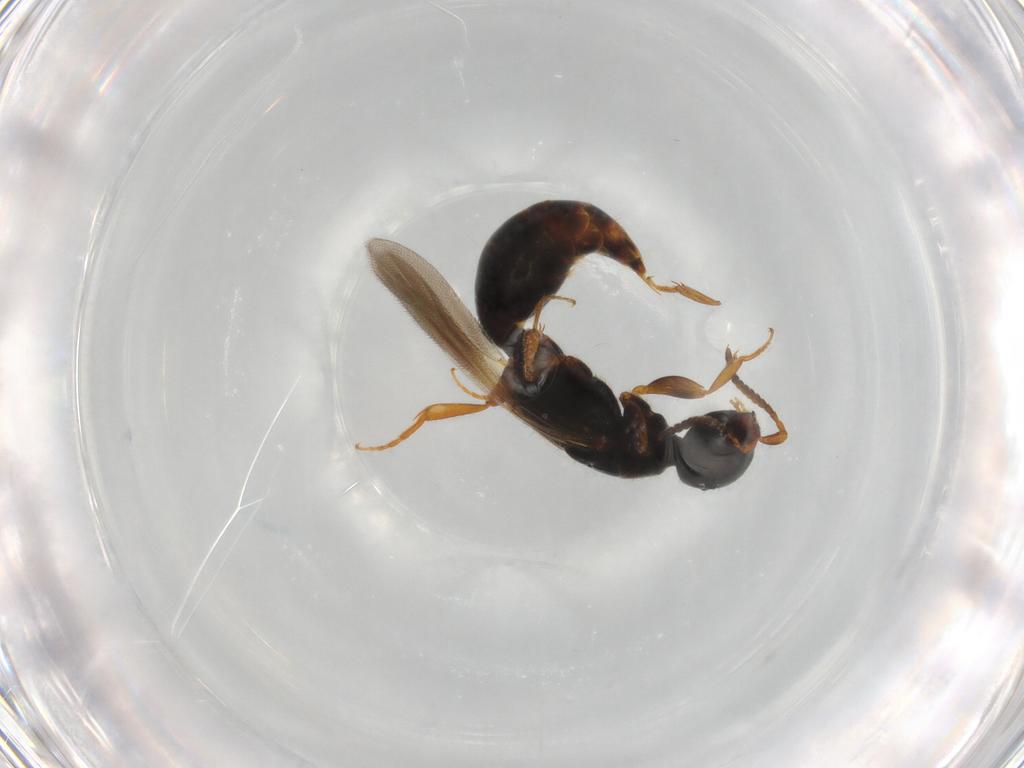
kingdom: Animalia
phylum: Arthropoda
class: Insecta
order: Hymenoptera
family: Bethylidae
